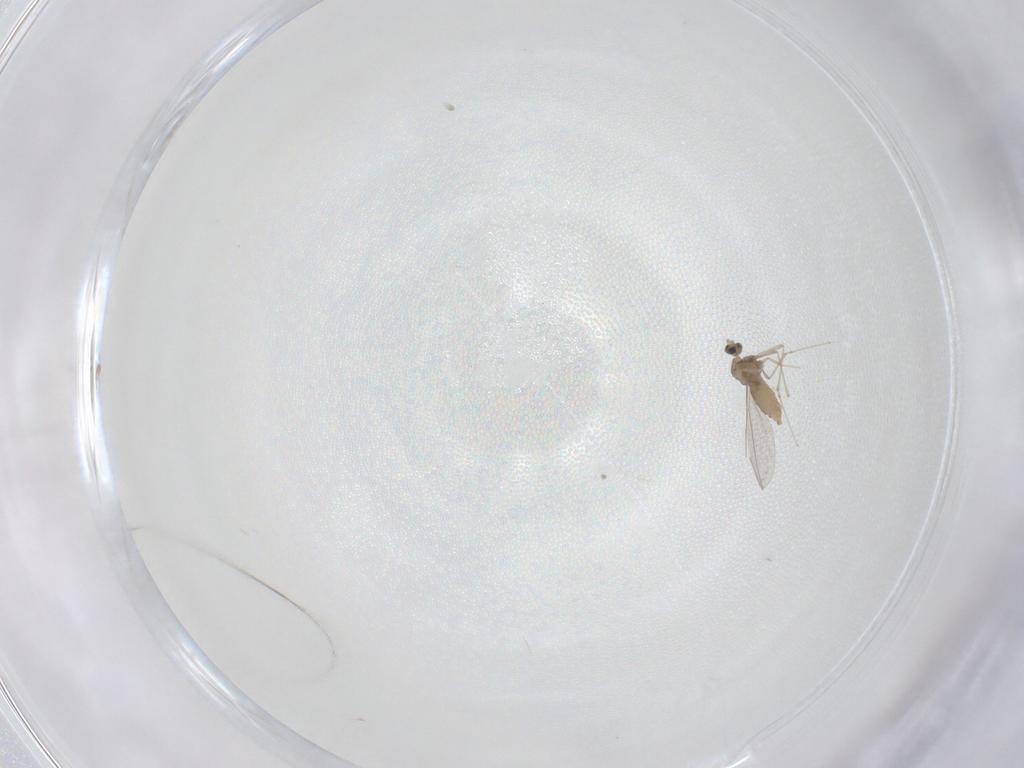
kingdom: Animalia
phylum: Arthropoda
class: Insecta
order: Diptera
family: Cecidomyiidae
